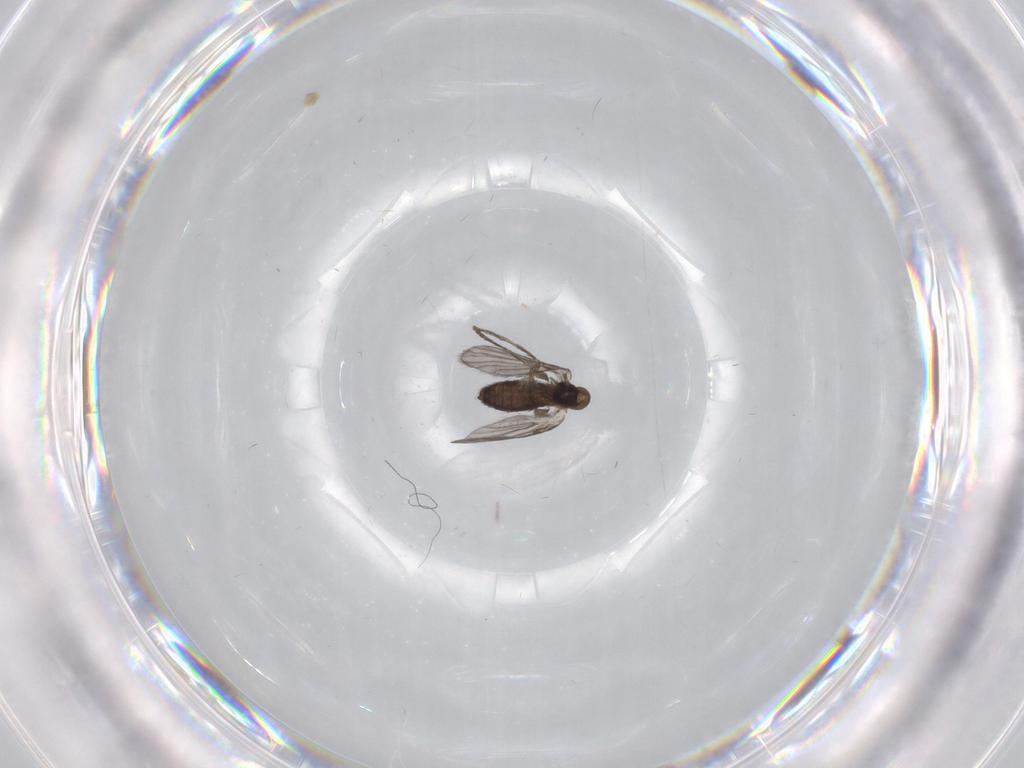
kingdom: Animalia
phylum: Arthropoda
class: Insecta
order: Diptera
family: Psychodidae
